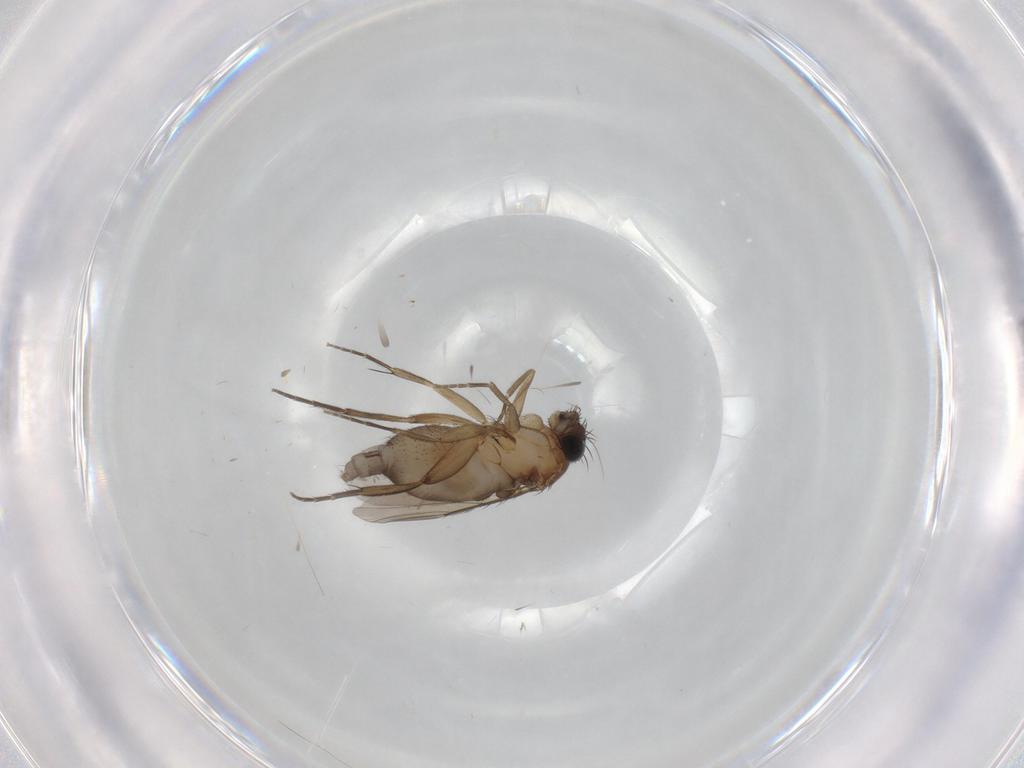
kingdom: Animalia
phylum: Arthropoda
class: Insecta
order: Diptera
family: Phoridae
